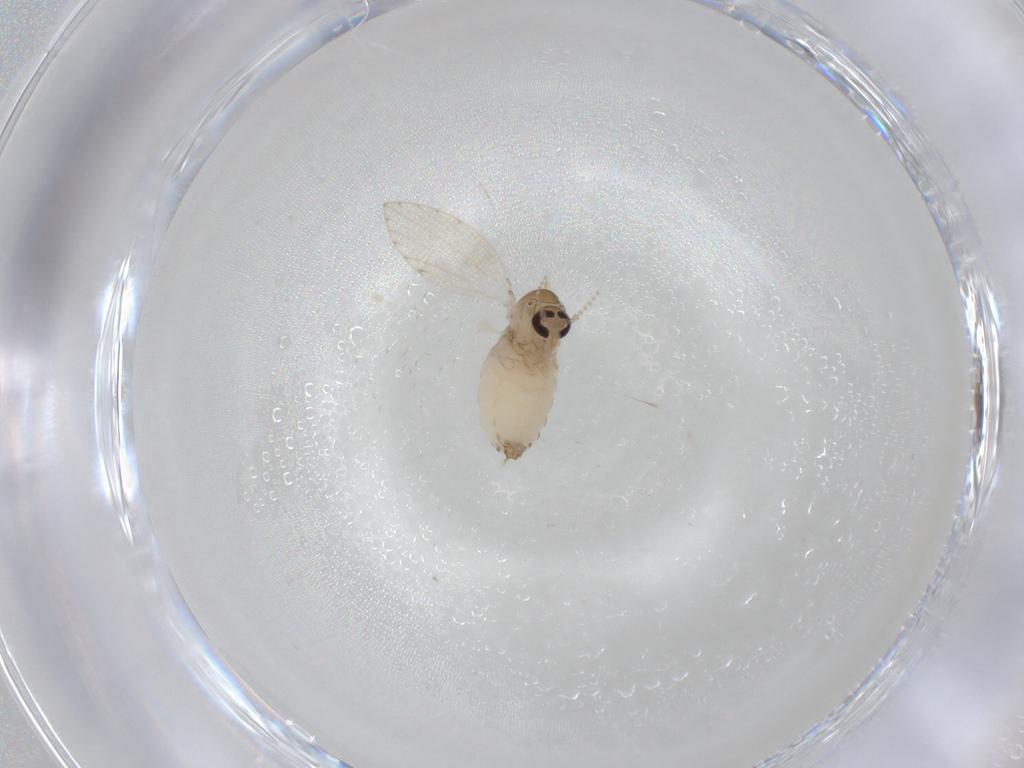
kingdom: Animalia
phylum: Arthropoda
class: Insecta
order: Diptera
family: Psychodidae
